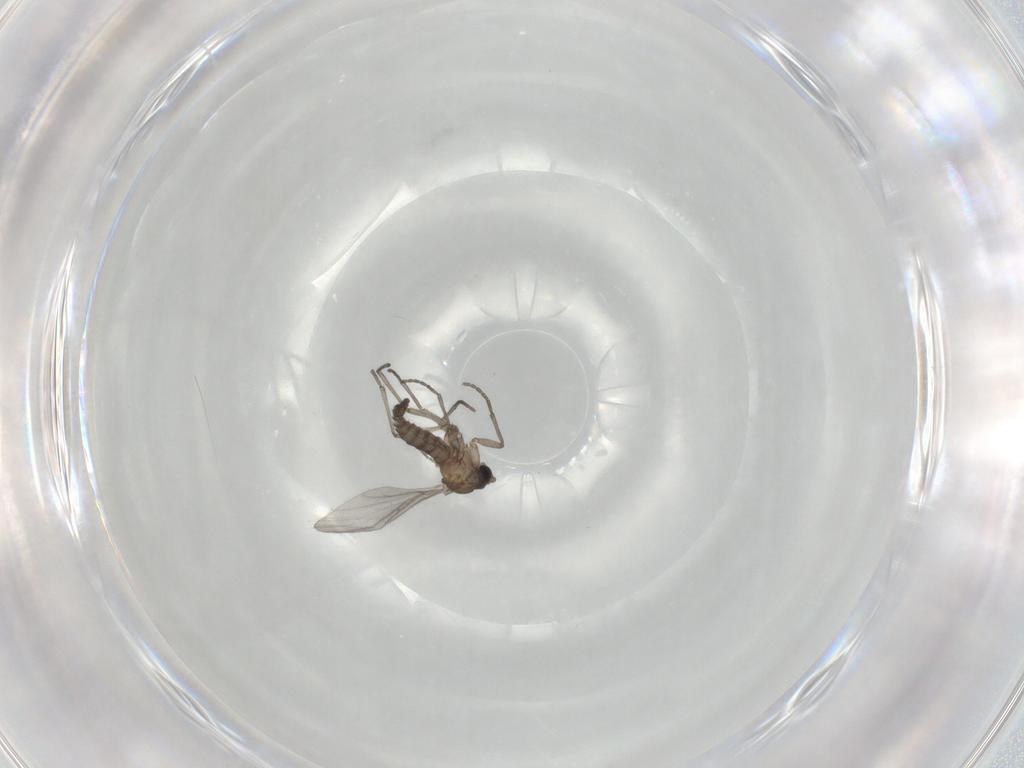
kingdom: Animalia
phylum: Arthropoda
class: Insecta
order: Diptera
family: Sciaridae
